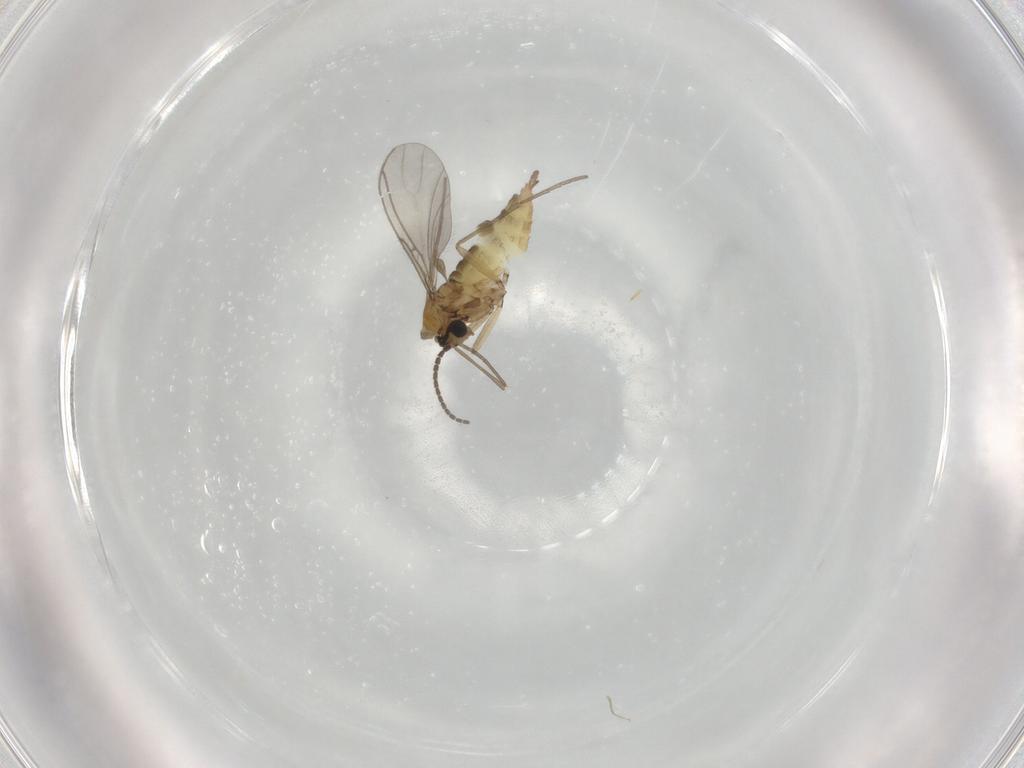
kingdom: Animalia
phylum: Arthropoda
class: Insecta
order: Diptera
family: Sciaridae
